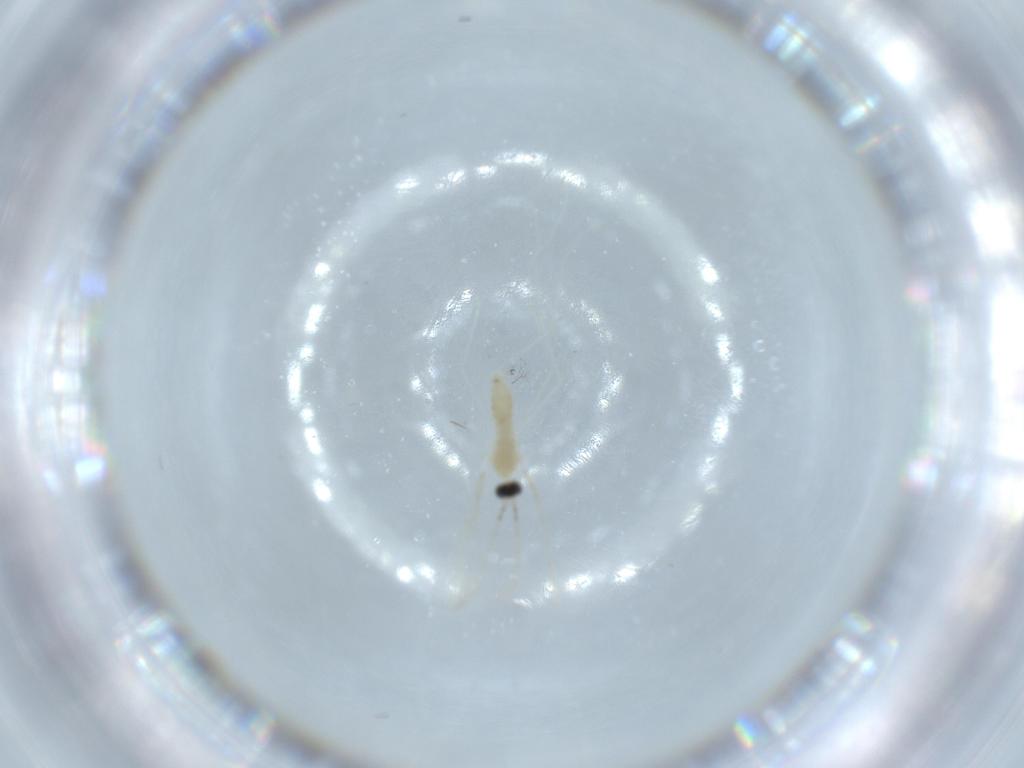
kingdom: Animalia
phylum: Arthropoda
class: Insecta
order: Diptera
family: Cecidomyiidae
